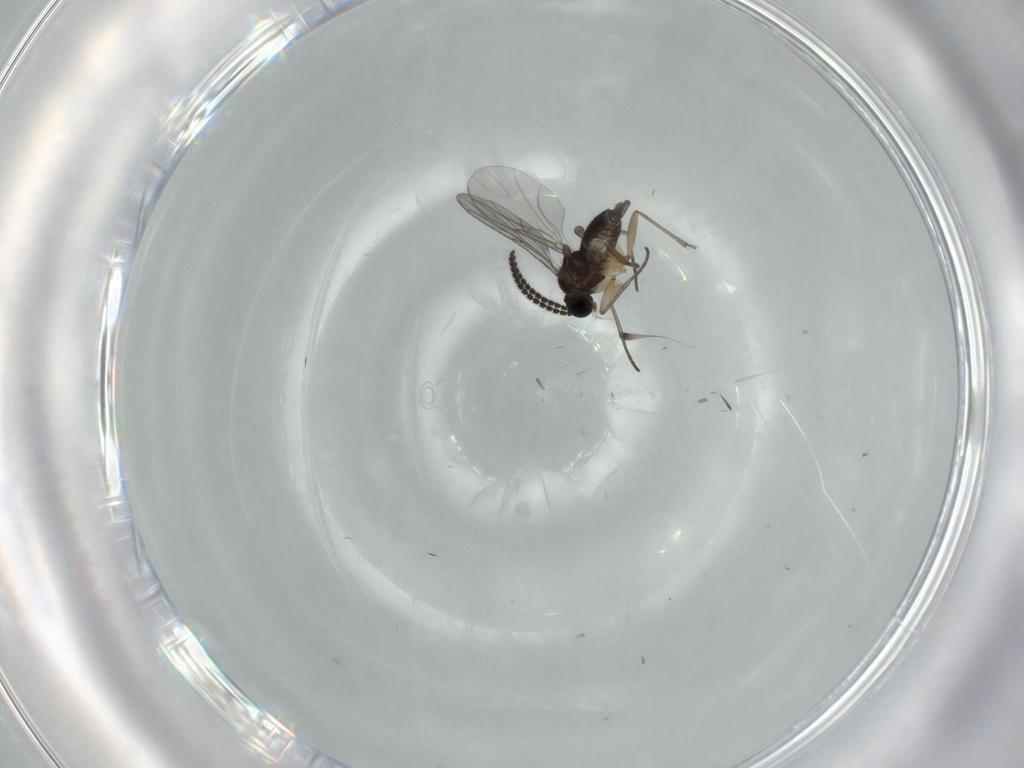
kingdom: Animalia
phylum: Arthropoda
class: Insecta
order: Diptera
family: Sciaridae
